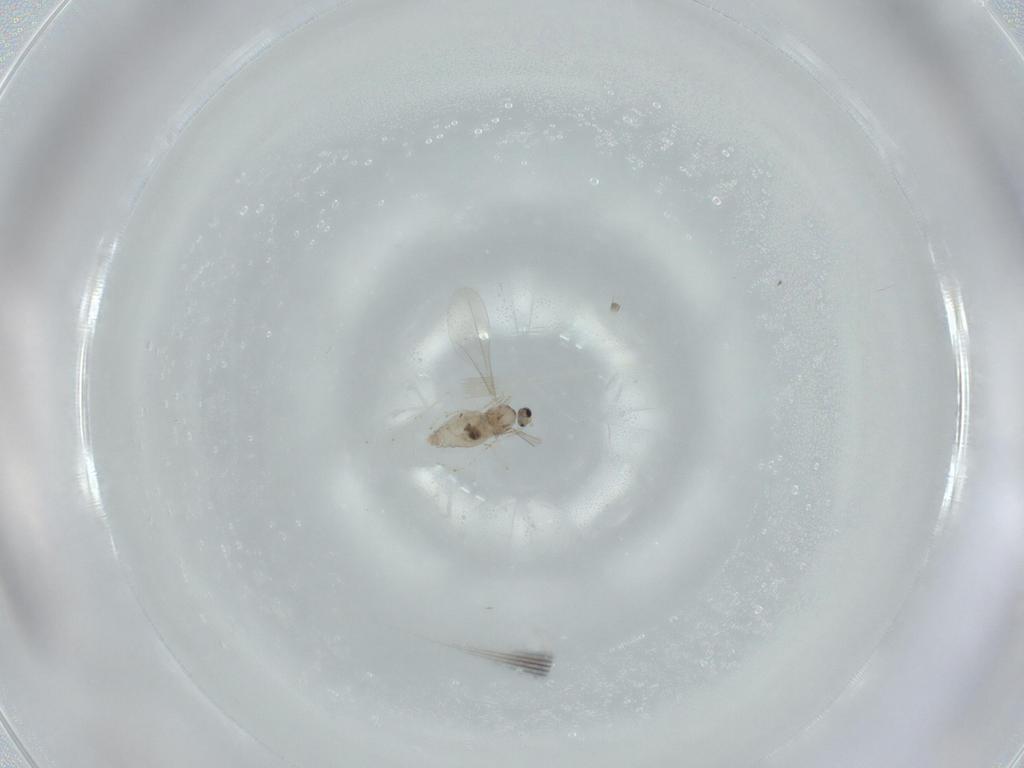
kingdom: Animalia
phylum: Arthropoda
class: Insecta
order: Diptera
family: Cecidomyiidae
